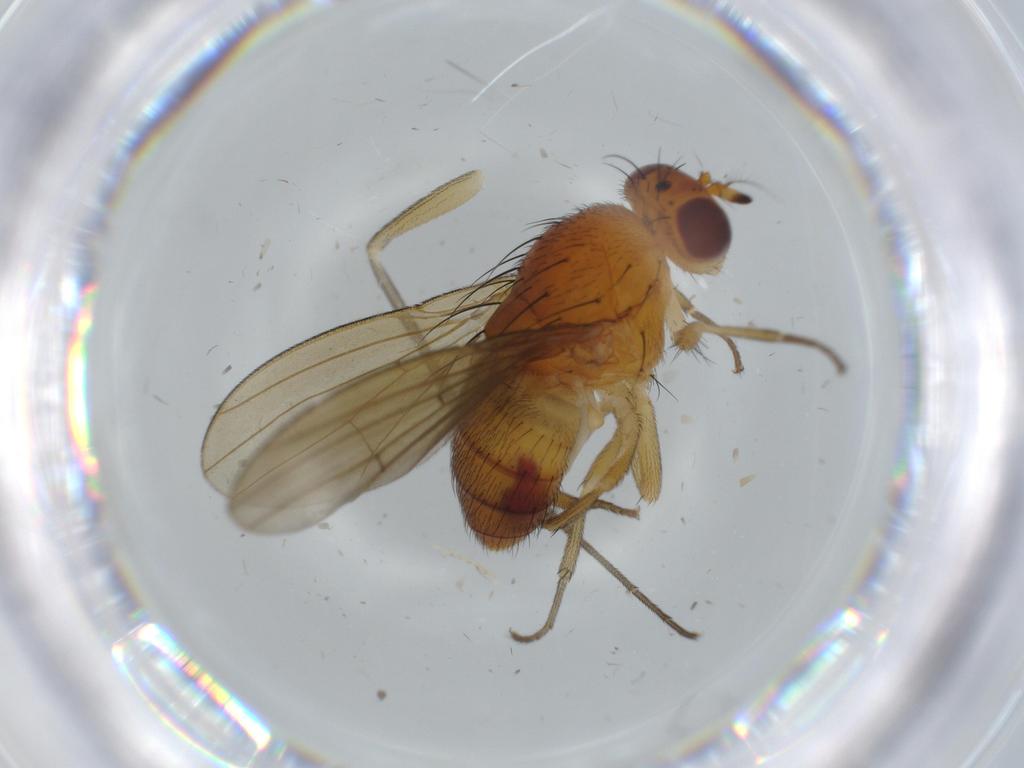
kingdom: Animalia
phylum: Arthropoda
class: Insecta
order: Diptera
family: Dolichopodidae
